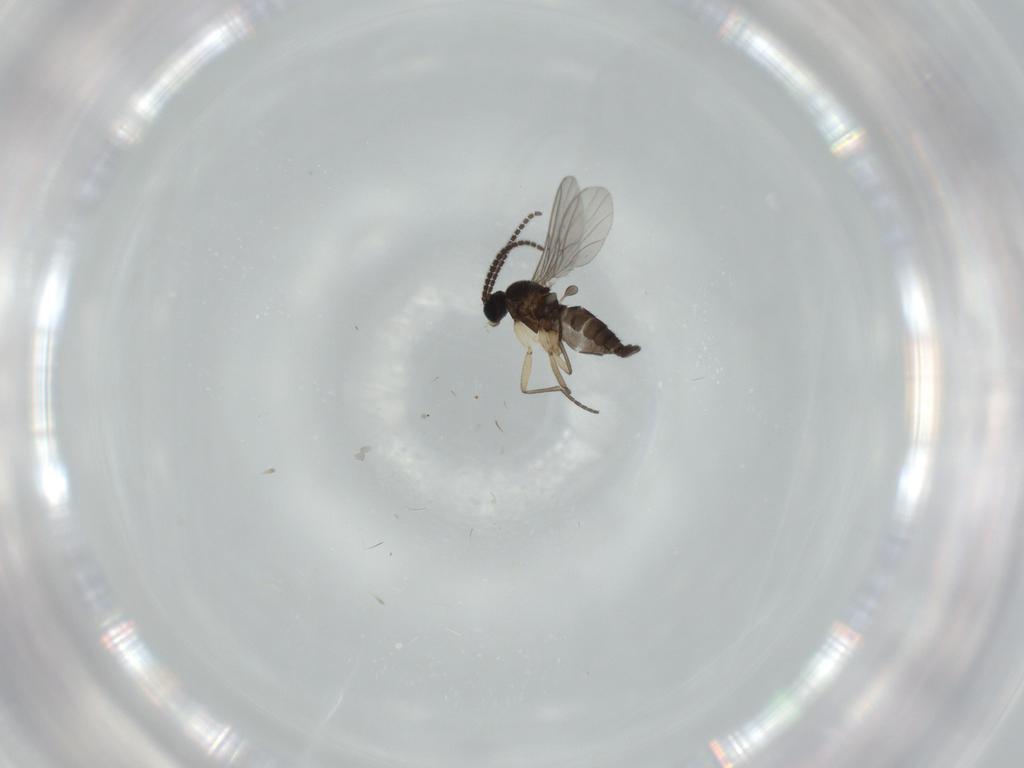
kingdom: Animalia
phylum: Arthropoda
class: Insecta
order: Diptera
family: Sciaridae
